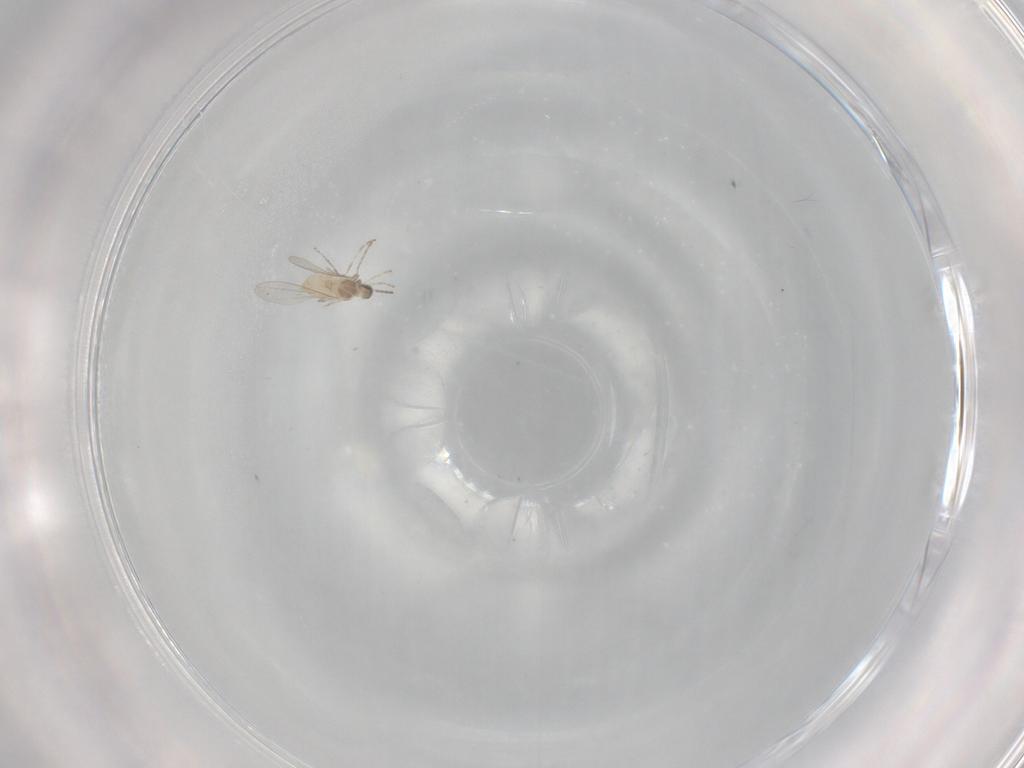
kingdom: Animalia
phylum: Arthropoda
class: Insecta
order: Diptera
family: Cecidomyiidae
